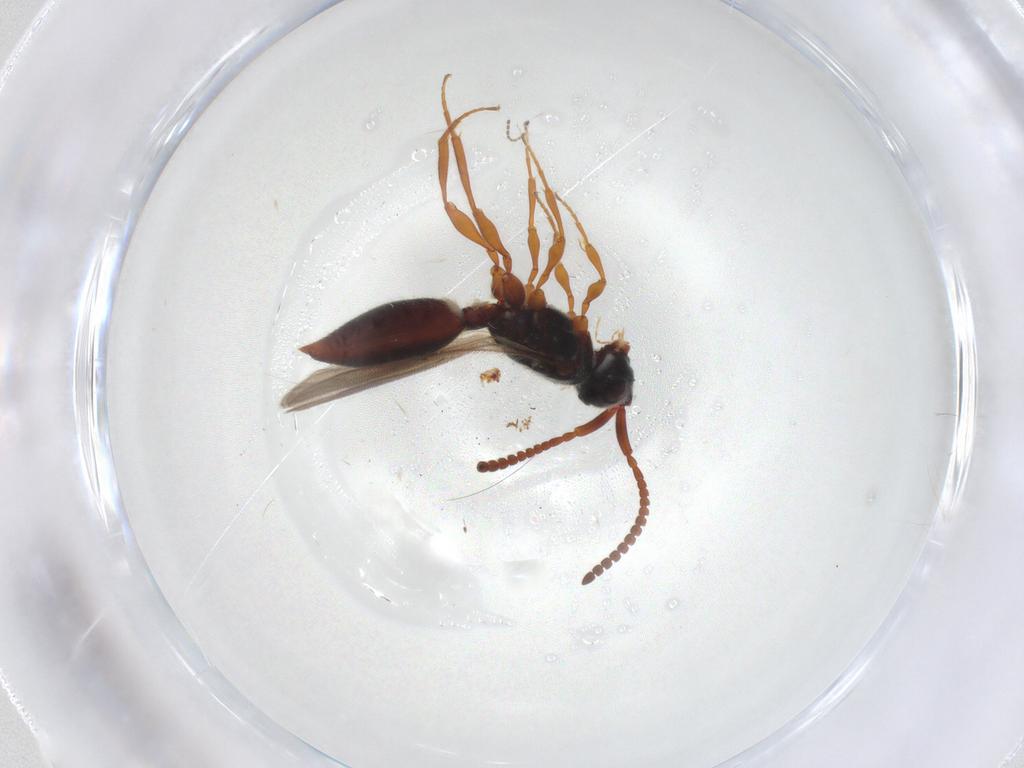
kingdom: Animalia
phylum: Arthropoda
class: Insecta
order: Hymenoptera
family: Diapriidae
